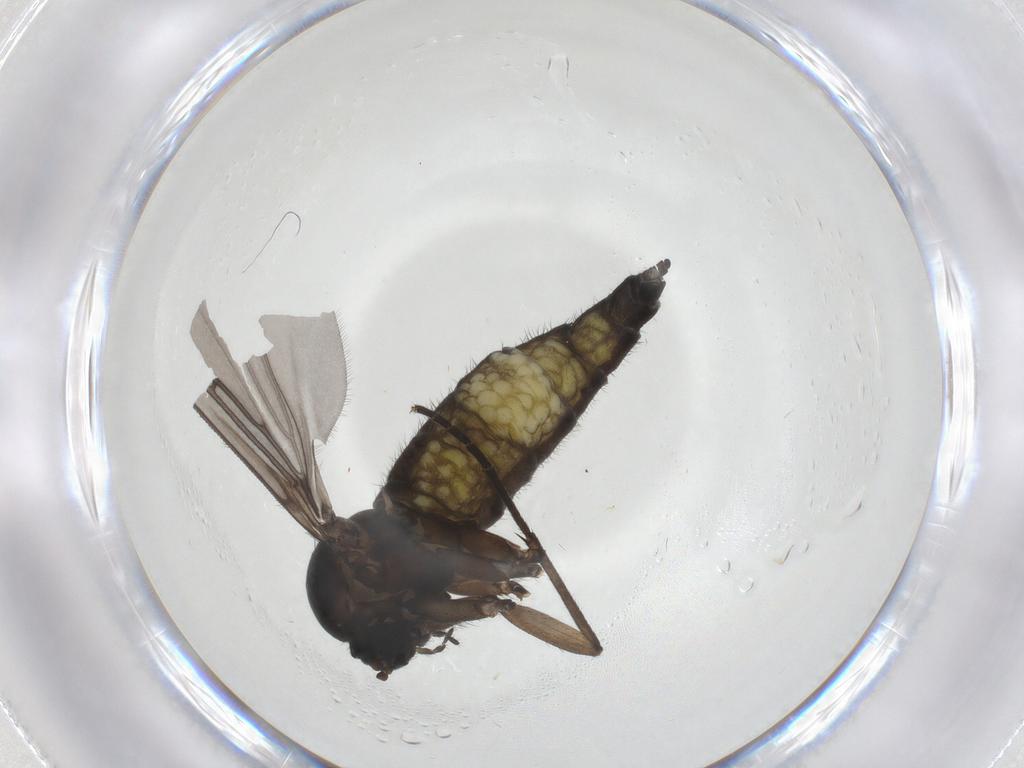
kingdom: Animalia
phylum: Arthropoda
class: Insecta
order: Diptera
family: Sciaridae
